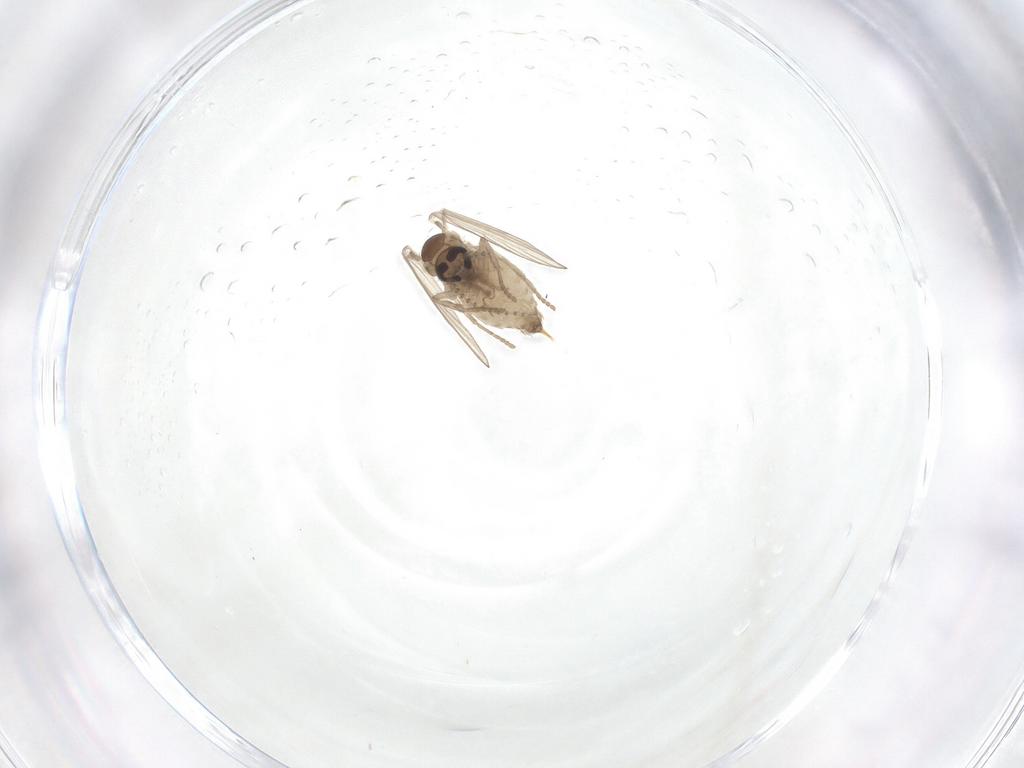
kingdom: Animalia
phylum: Arthropoda
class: Insecta
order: Diptera
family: Psychodidae
